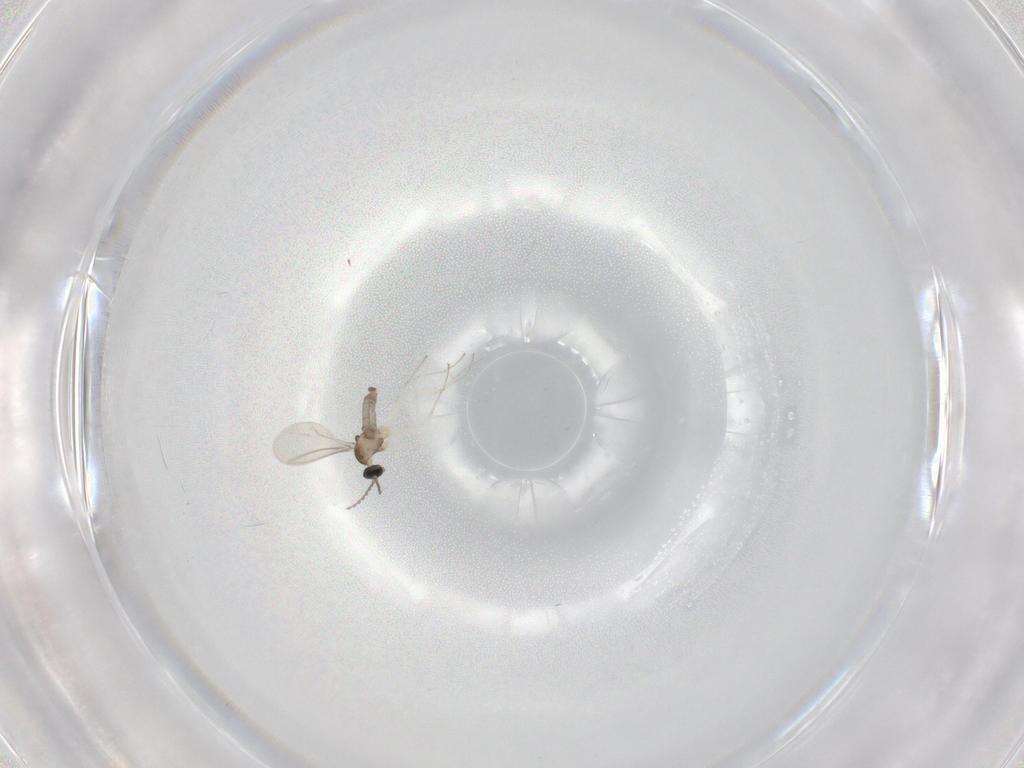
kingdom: Animalia
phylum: Arthropoda
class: Insecta
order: Diptera
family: Cecidomyiidae
